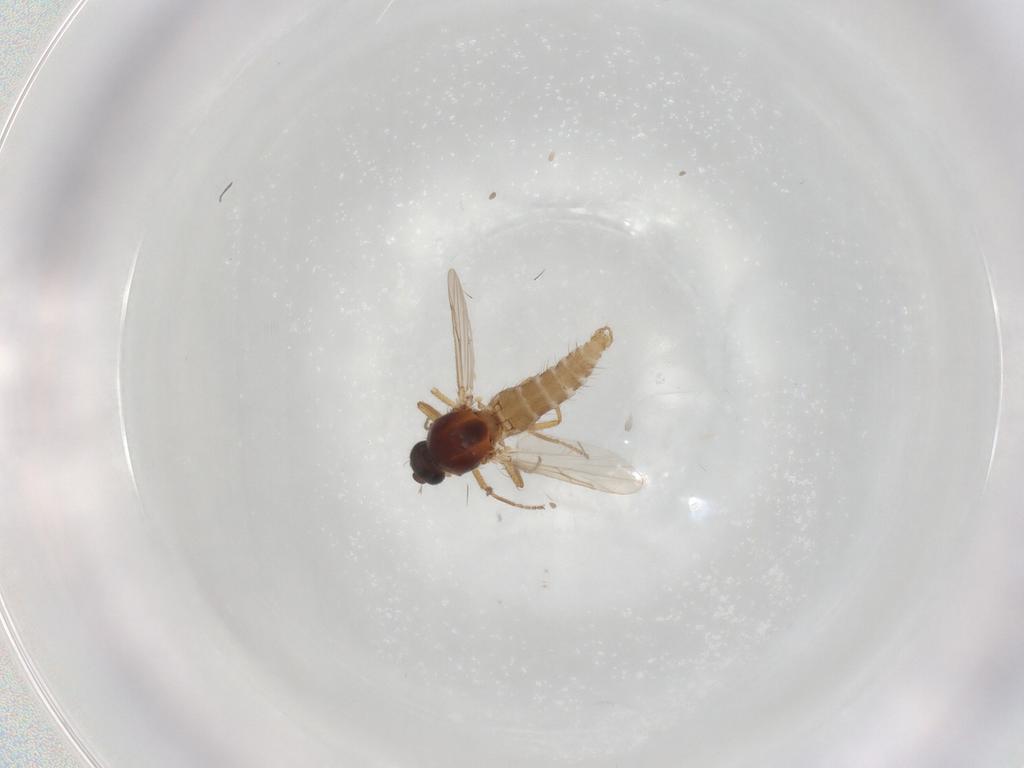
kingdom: Animalia
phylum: Arthropoda
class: Insecta
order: Diptera
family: Ceratopogonidae
